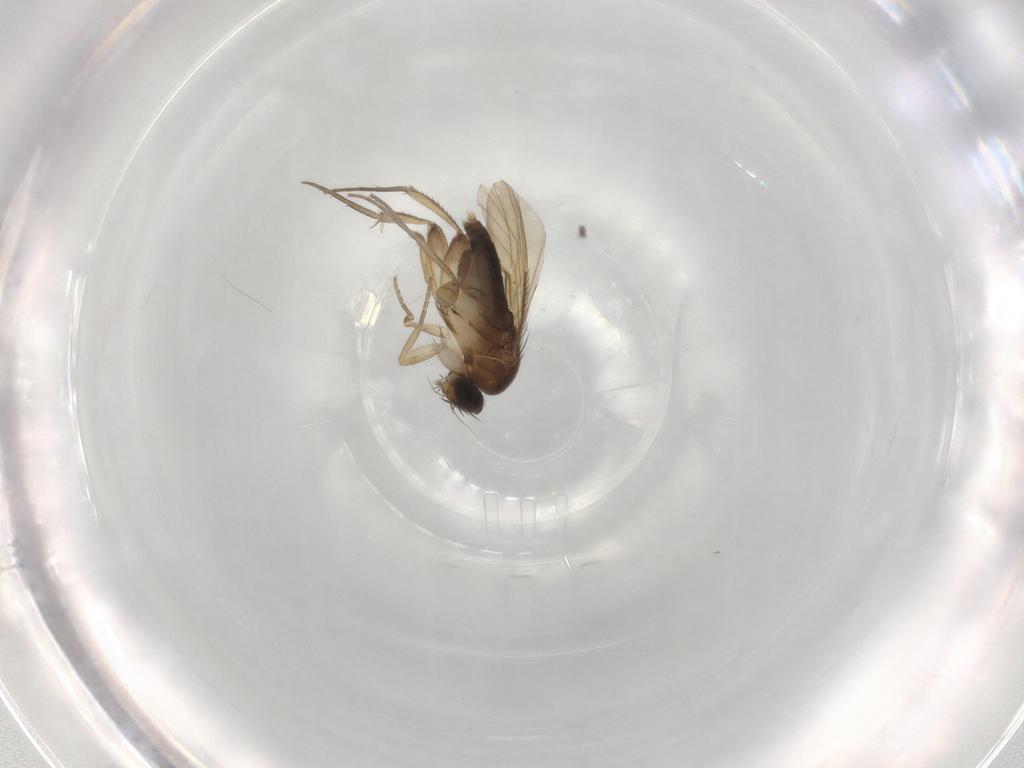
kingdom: Animalia
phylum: Arthropoda
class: Insecta
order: Diptera
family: Phoridae
